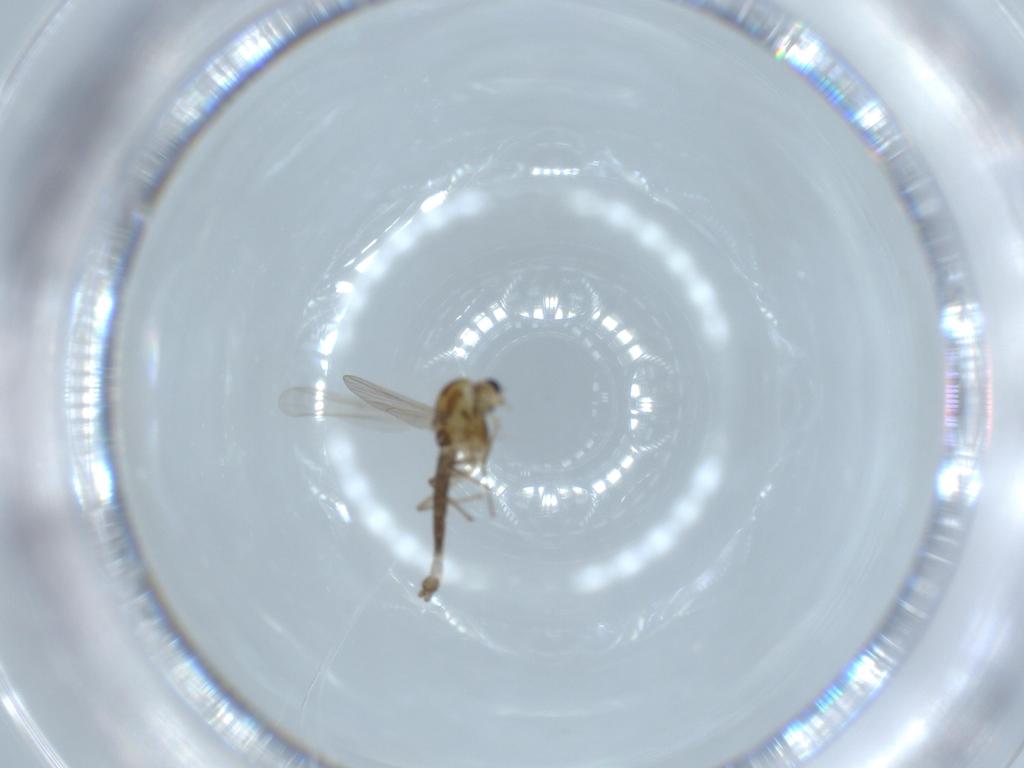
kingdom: Animalia
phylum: Arthropoda
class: Insecta
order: Diptera
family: Chironomidae
